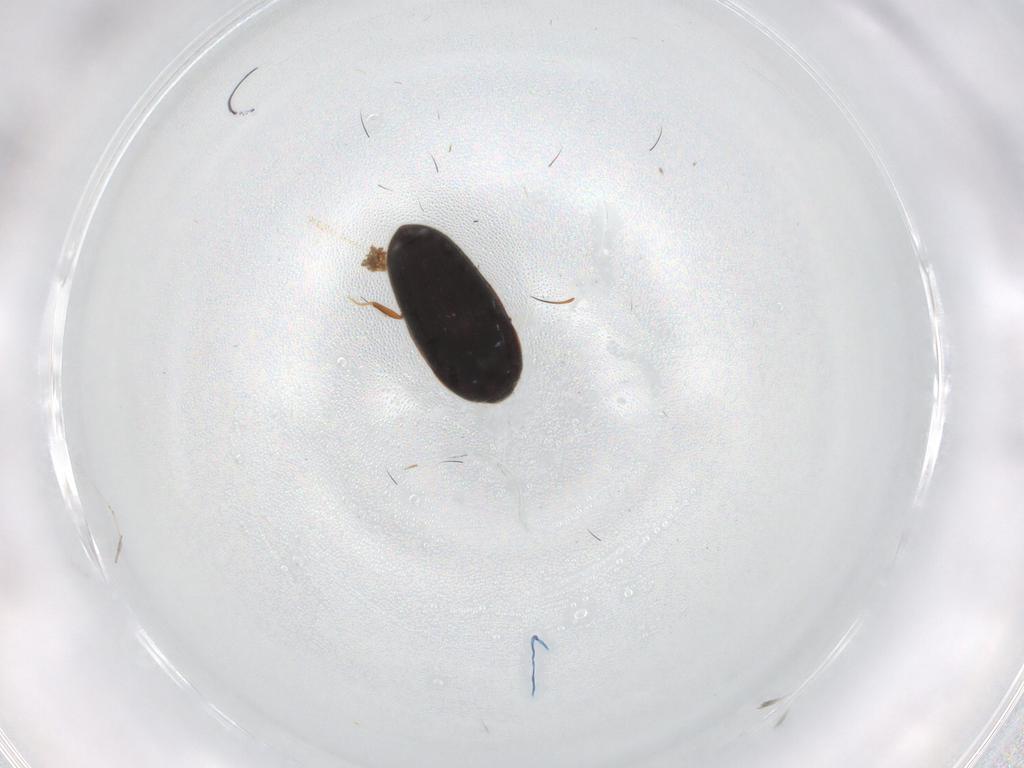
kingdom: Animalia
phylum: Arthropoda
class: Insecta
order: Coleoptera
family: Throscidae
